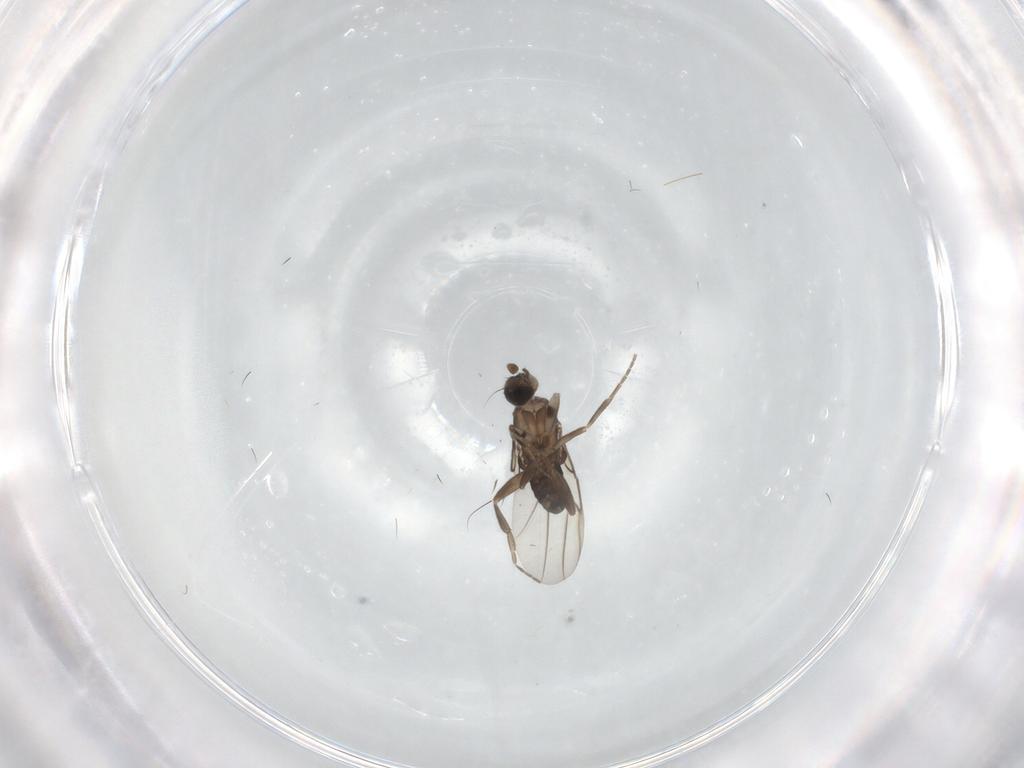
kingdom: Animalia
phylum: Arthropoda
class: Insecta
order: Diptera
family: Phoridae
